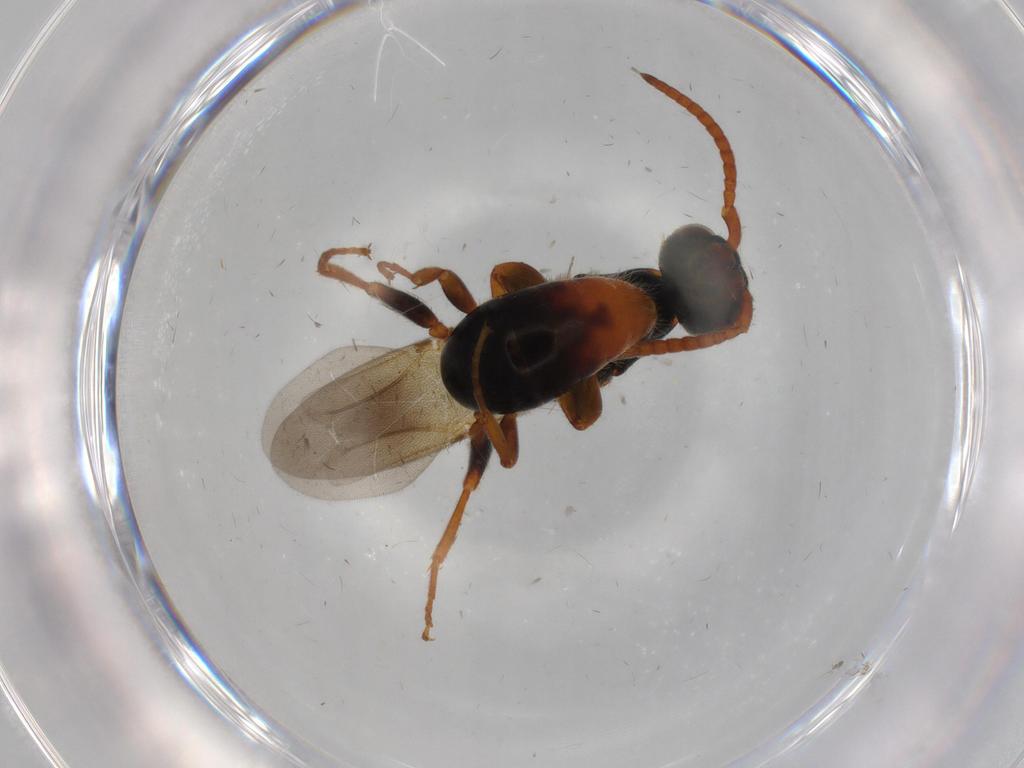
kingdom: Animalia
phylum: Arthropoda
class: Insecta
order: Hymenoptera
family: Bethylidae
